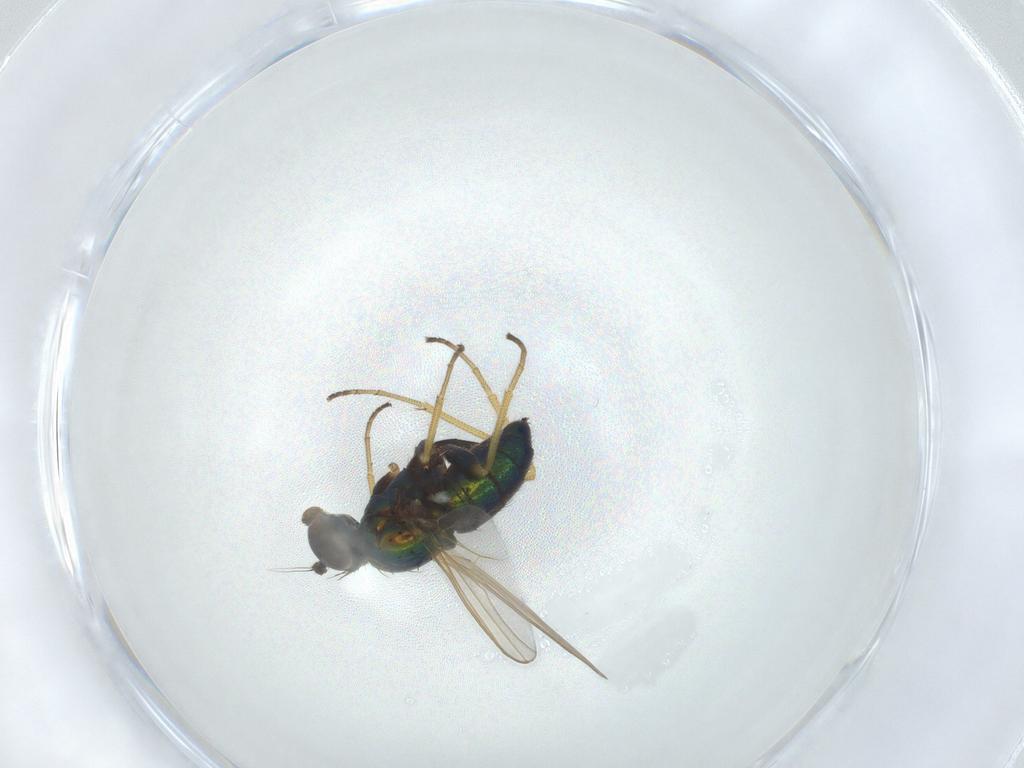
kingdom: Animalia
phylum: Arthropoda
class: Insecta
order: Diptera
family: Dolichopodidae
